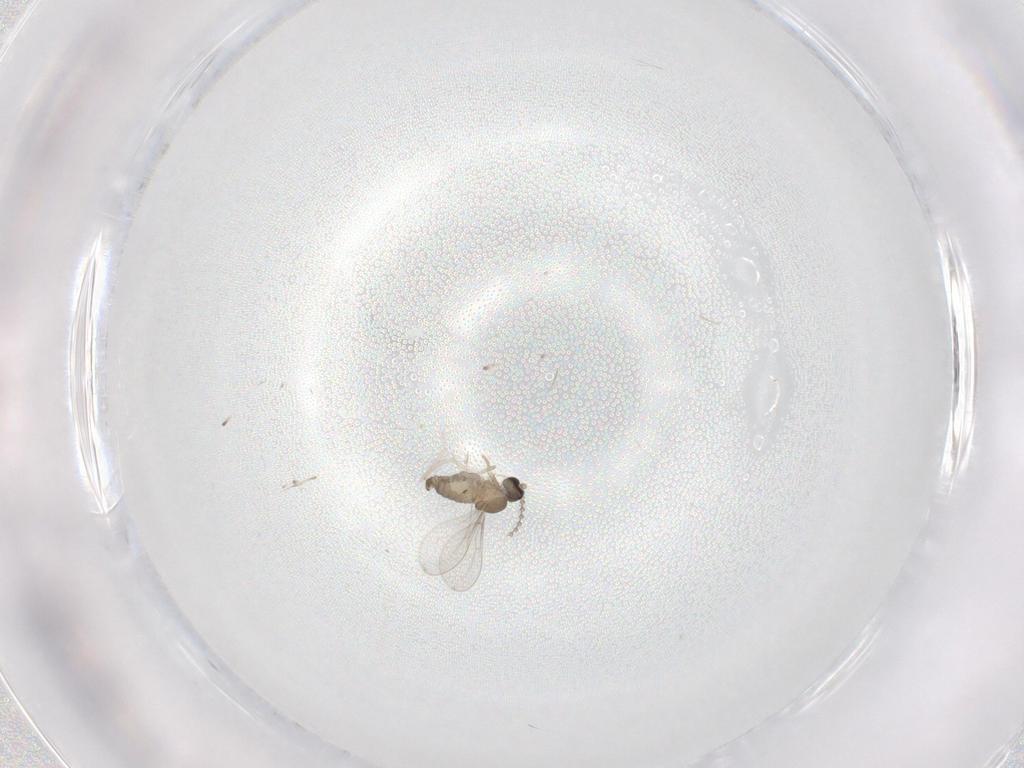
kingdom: Animalia
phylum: Arthropoda
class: Insecta
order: Diptera
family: Cecidomyiidae
